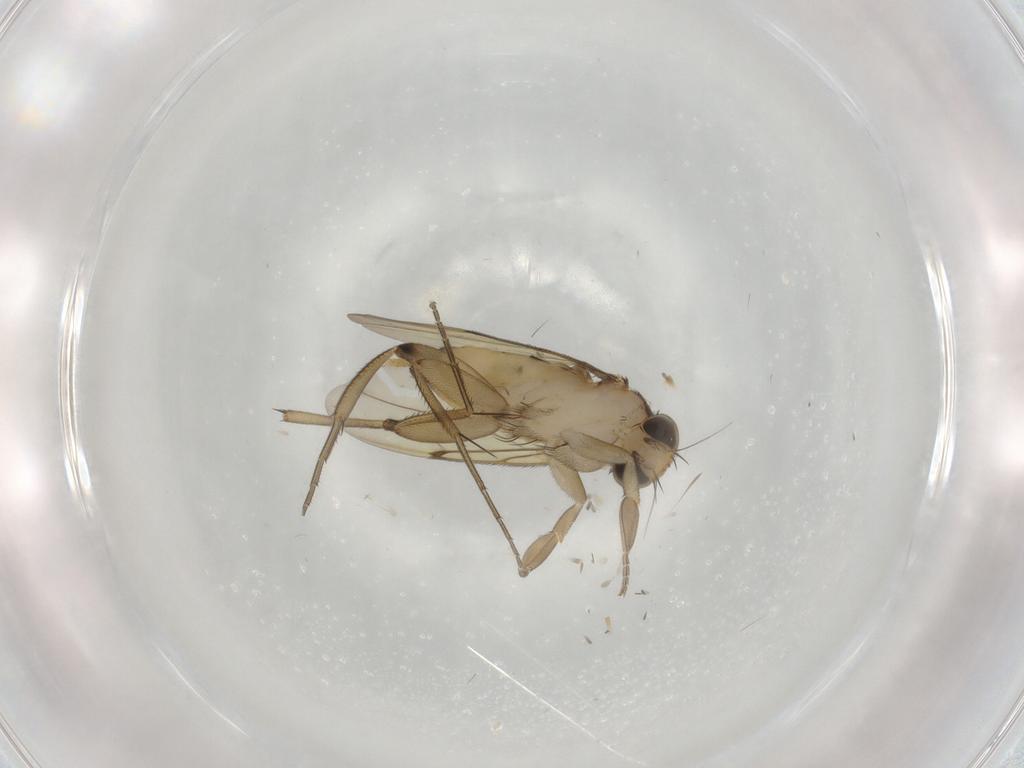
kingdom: Animalia
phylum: Arthropoda
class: Insecta
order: Diptera
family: Phoridae
